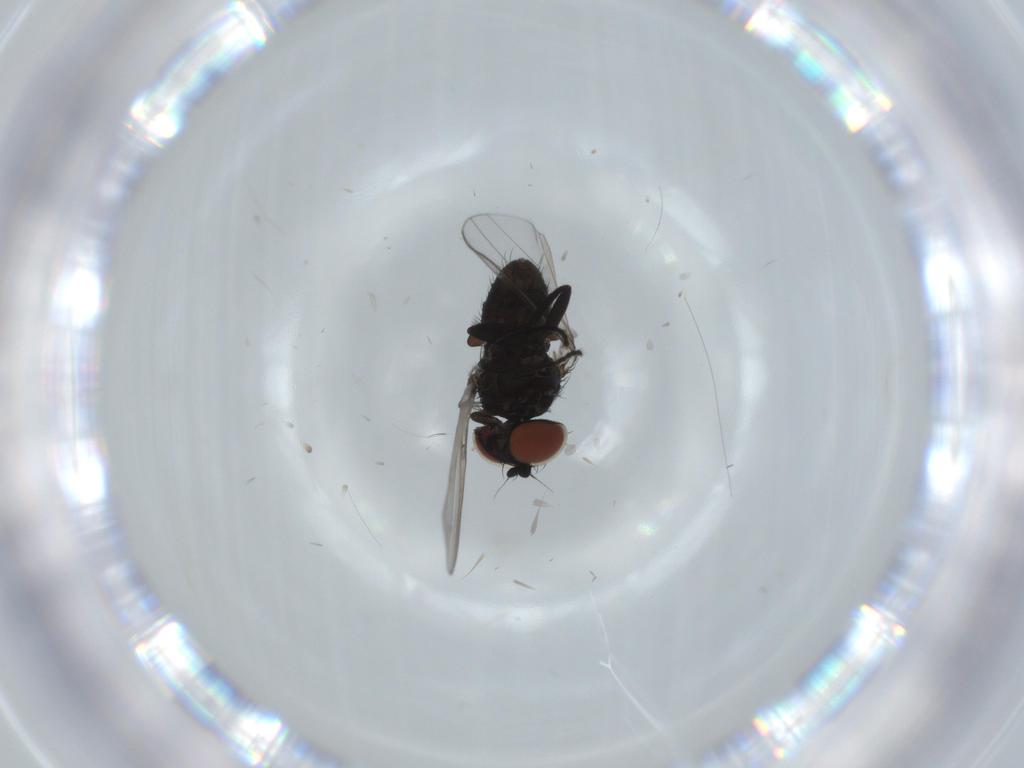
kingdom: Animalia
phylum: Arthropoda
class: Insecta
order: Diptera
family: Milichiidae
